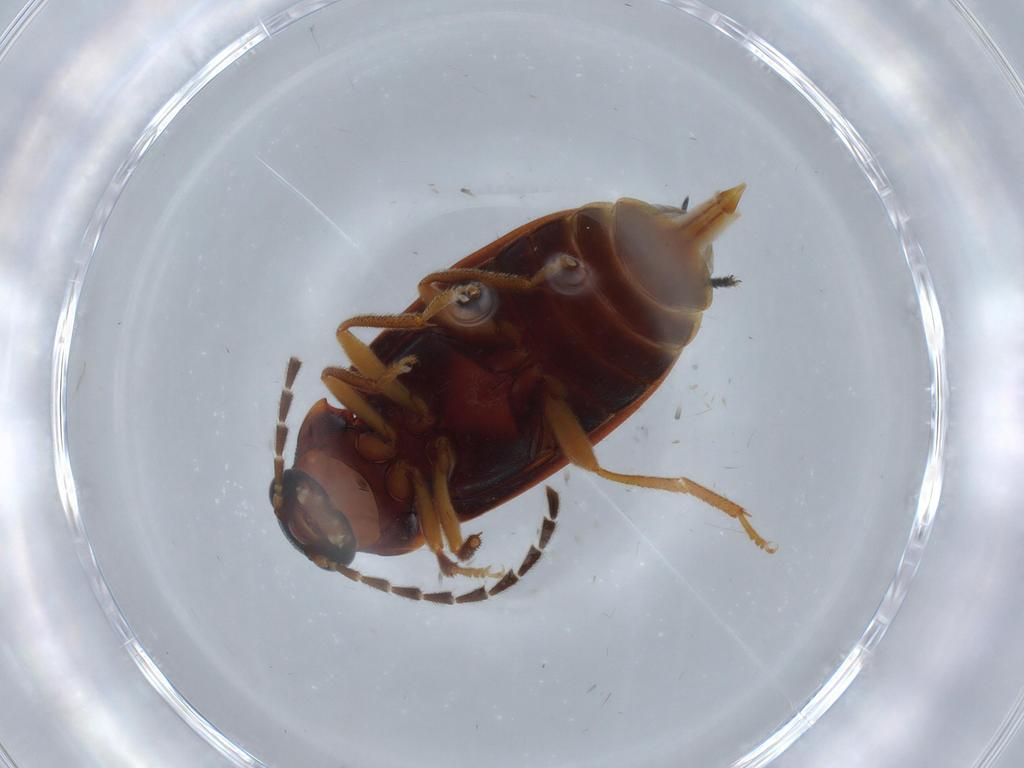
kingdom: Animalia
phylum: Arthropoda
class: Insecta
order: Coleoptera
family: Ptilodactylidae
